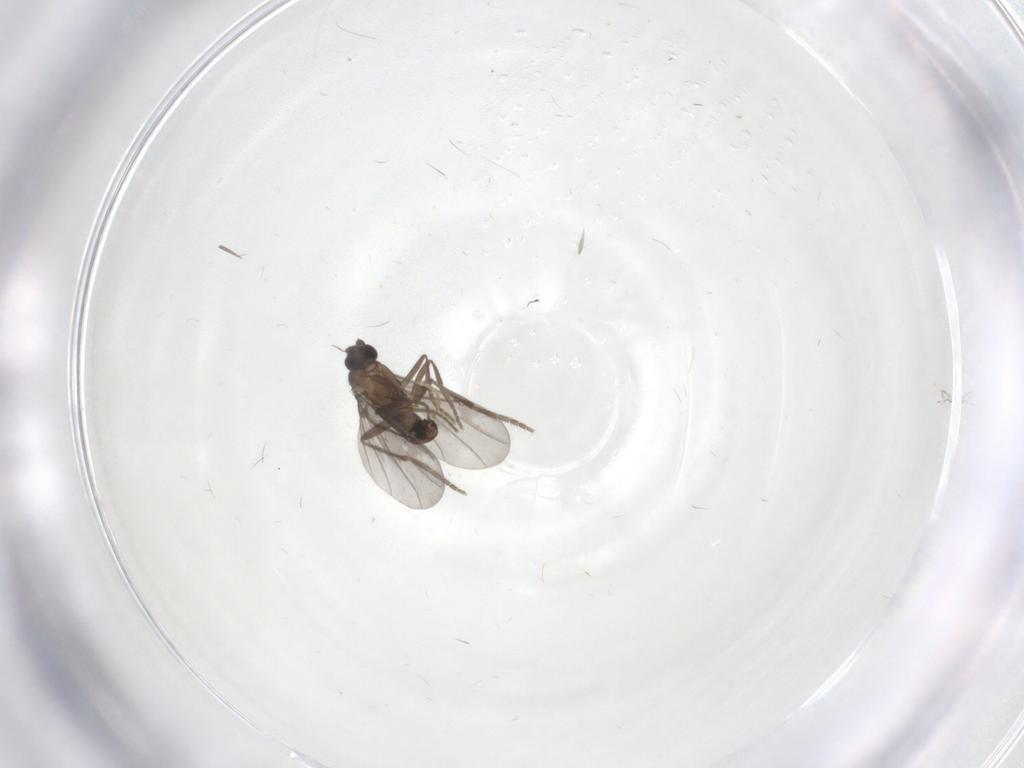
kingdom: Animalia
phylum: Arthropoda
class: Insecta
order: Diptera
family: Phoridae
